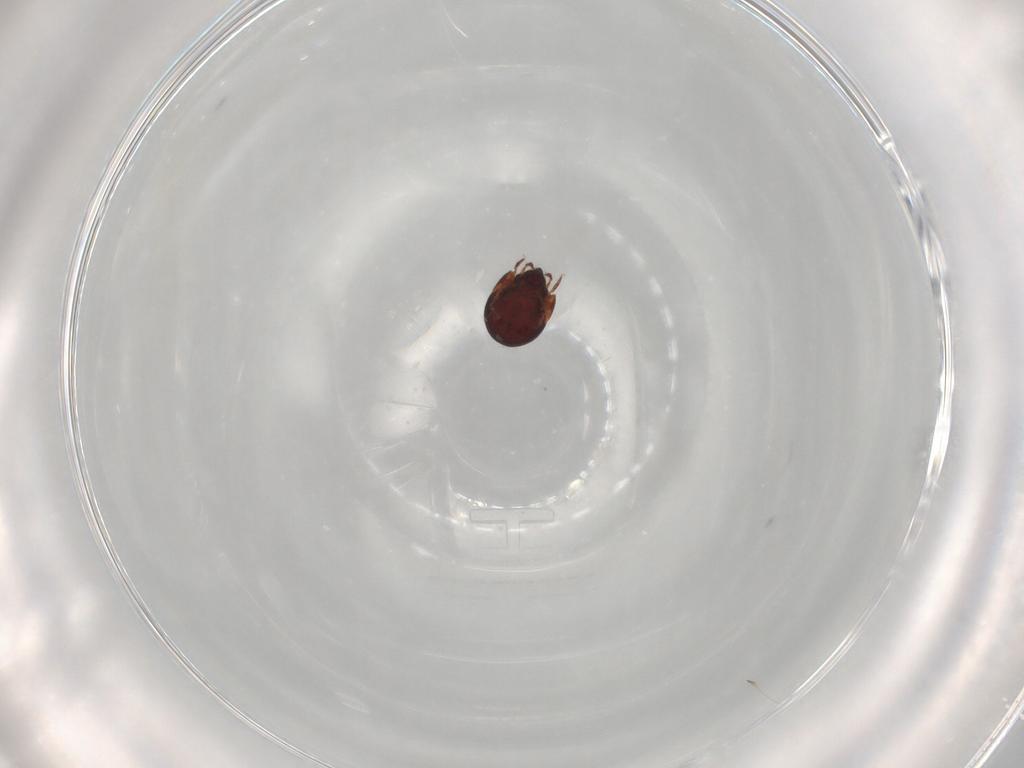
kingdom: Animalia
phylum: Arthropoda
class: Arachnida
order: Sarcoptiformes
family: Humerobatidae
